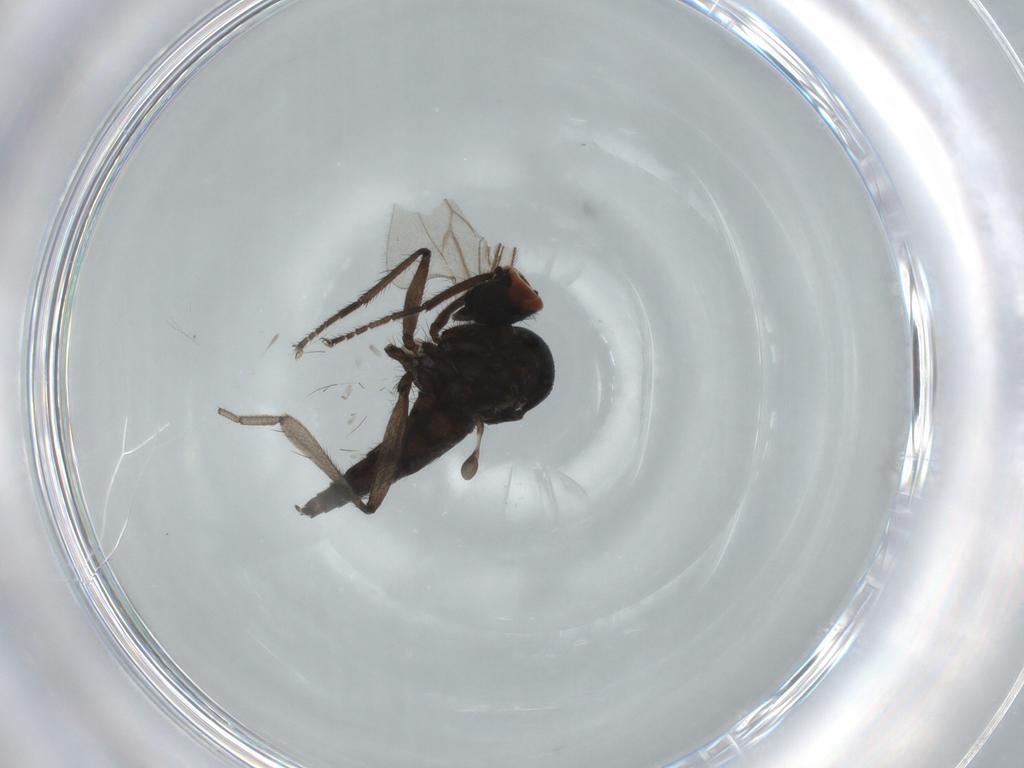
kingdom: Animalia
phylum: Arthropoda
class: Insecta
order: Diptera
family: Hybotidae
